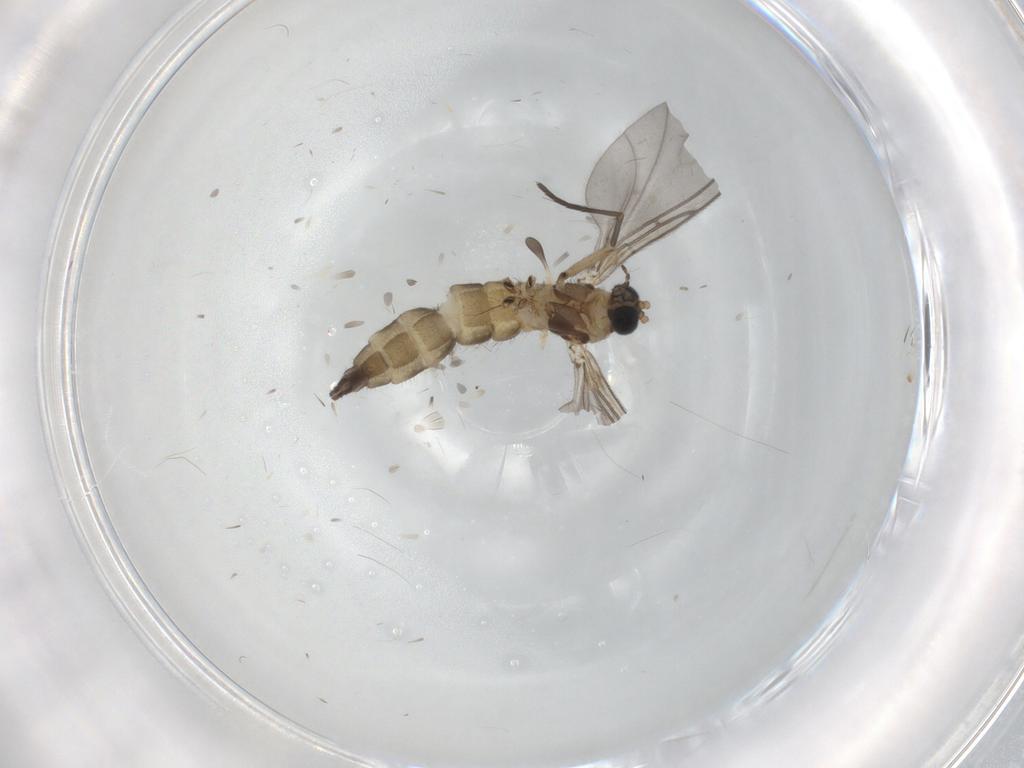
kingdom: Animalia
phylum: Arthropoda
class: Insecta
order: Diptera
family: Sciaridae
